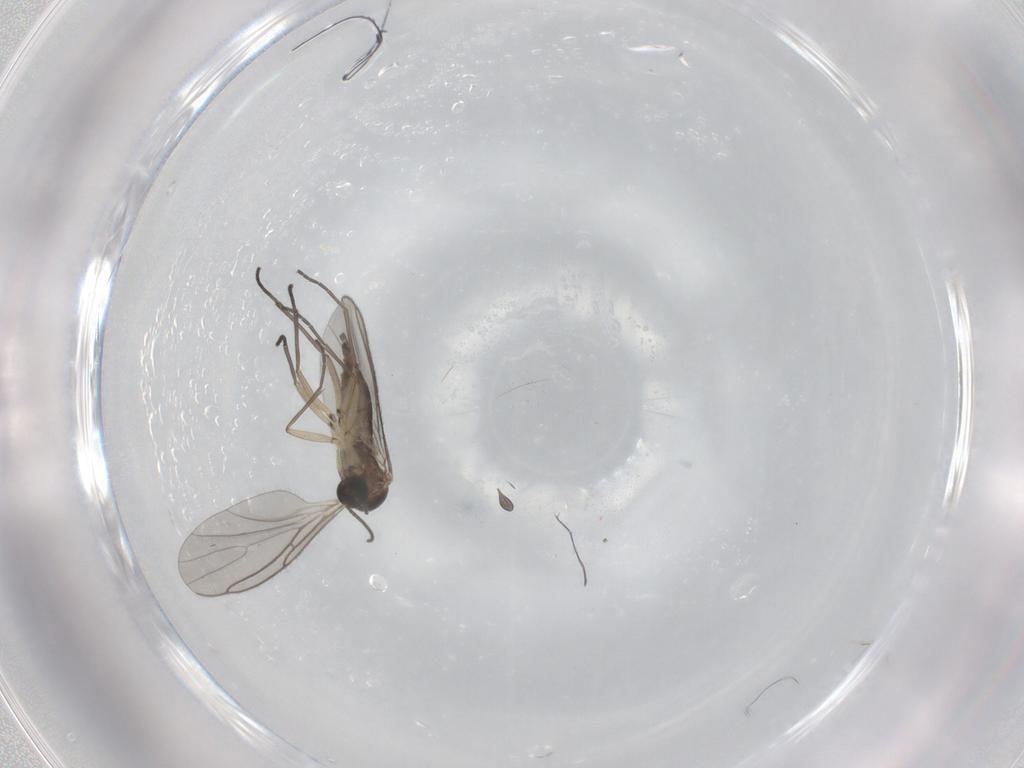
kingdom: Animalia
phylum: Arthropoda
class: Insecta
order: Diptera
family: Sciaridae
